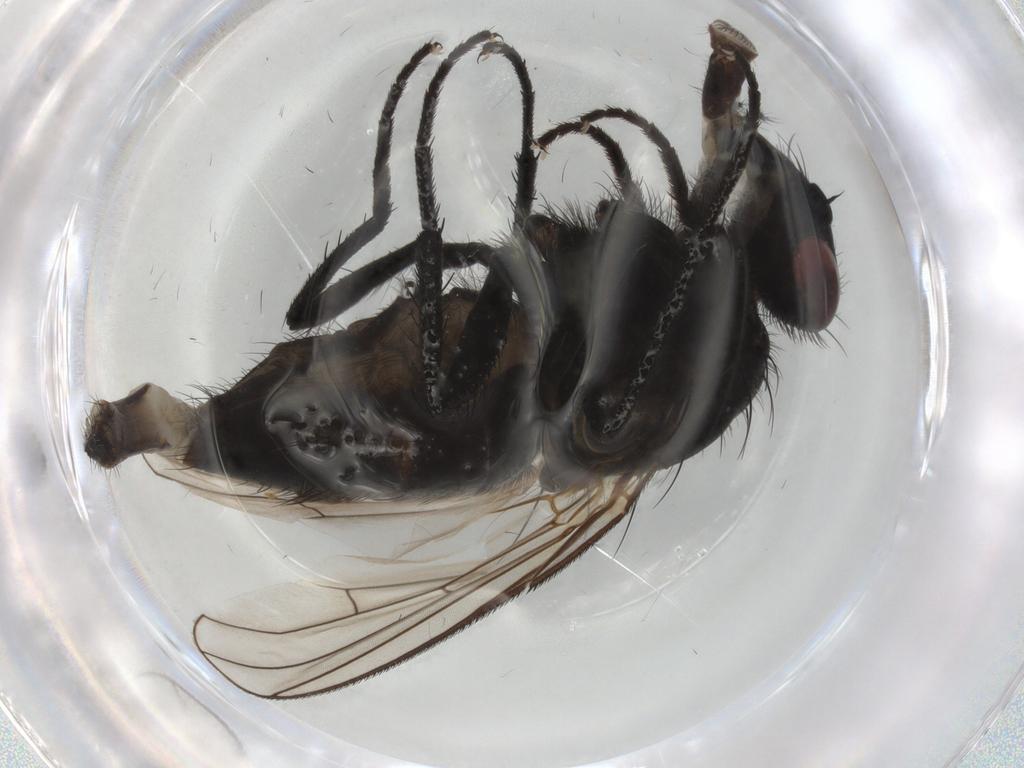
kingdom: Animalia
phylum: Arthropoda
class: Insecta
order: Diptera
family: Muscidae
